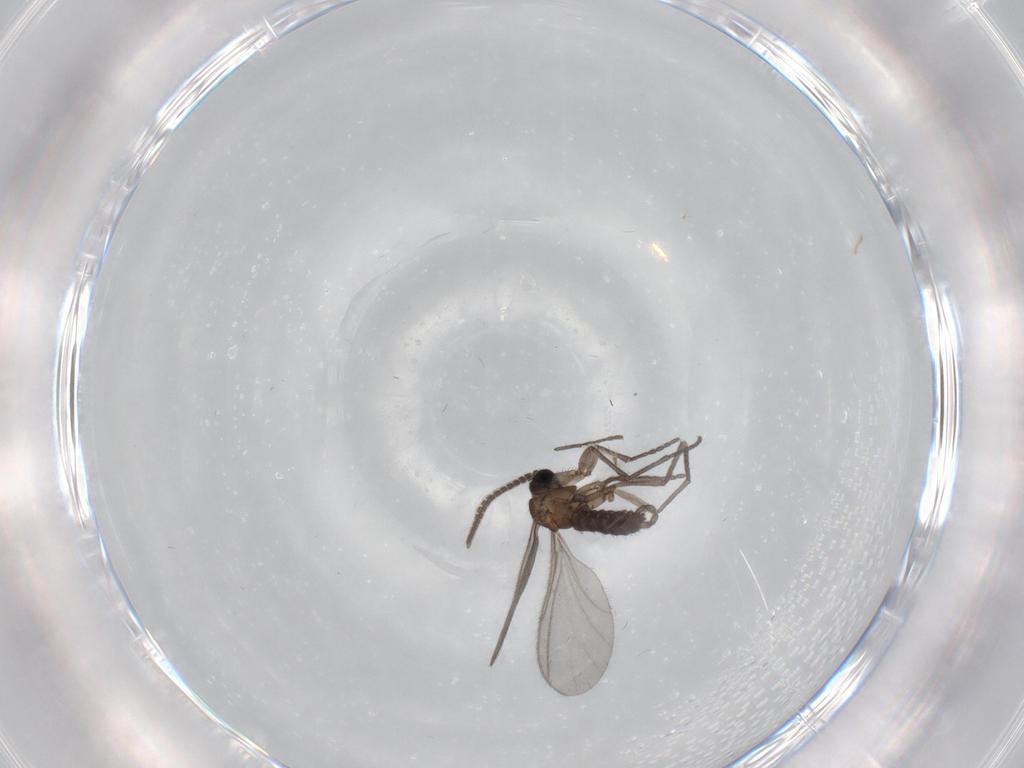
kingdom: Animalia
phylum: Arthropoda
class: Insecta
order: Diptera
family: Sciaridae
